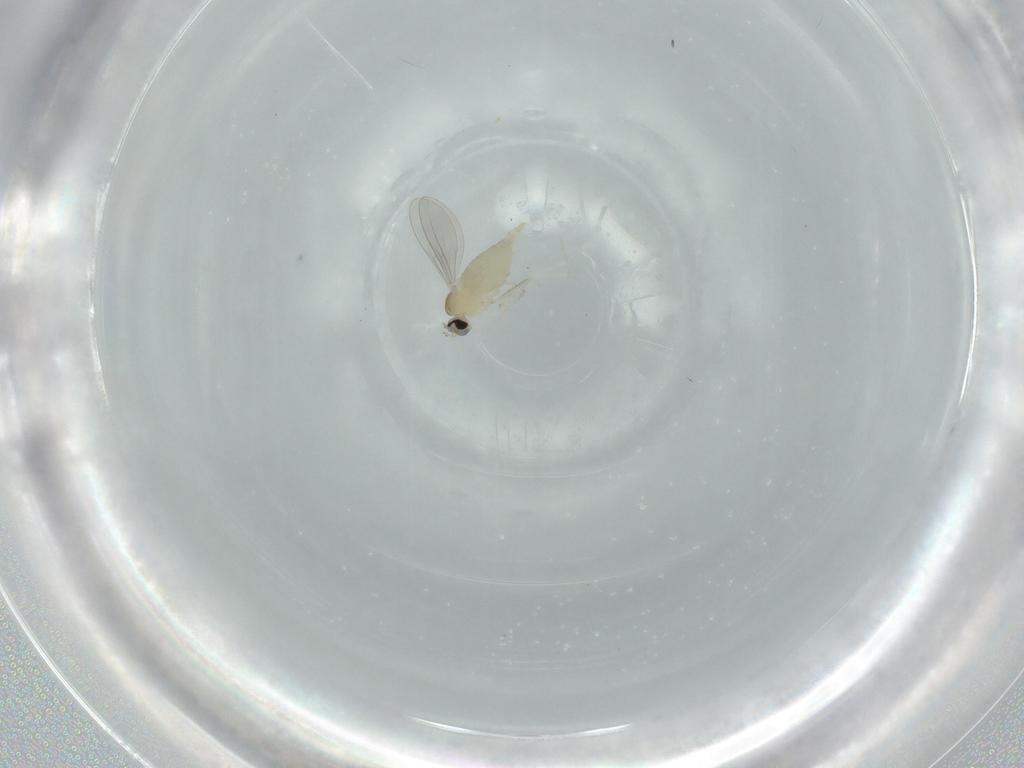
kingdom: Animalia
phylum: Arthropoda
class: Insecta
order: Diptera
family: Cecidomyiidae
